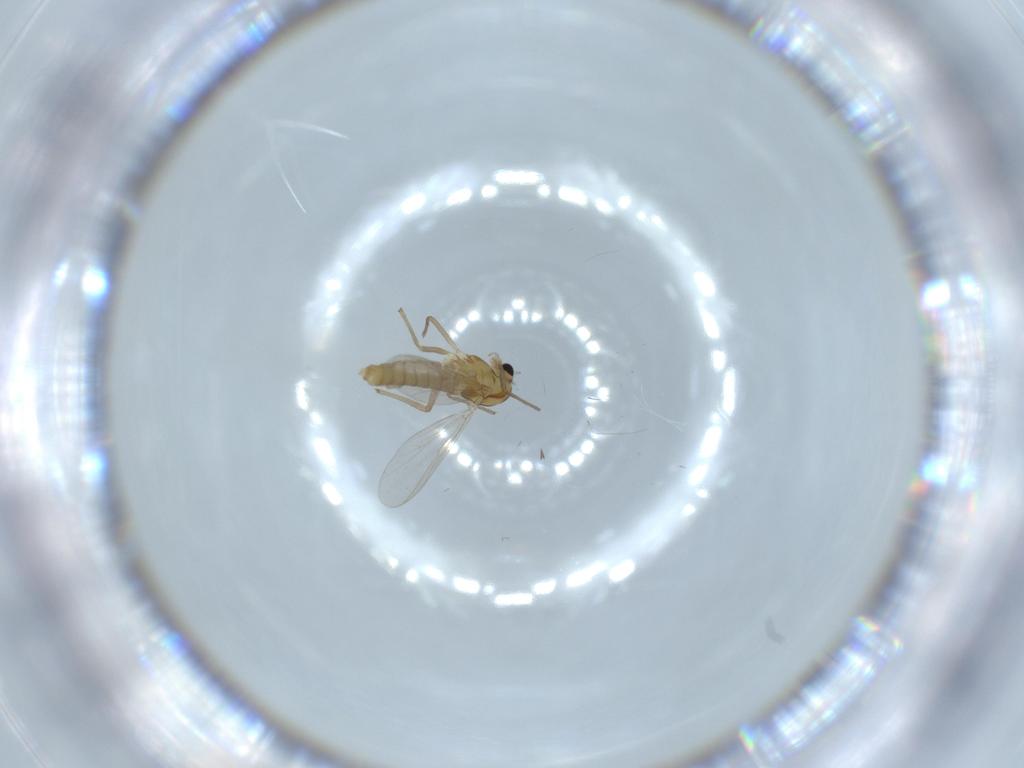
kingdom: Animalia
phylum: Arthropoda
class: Insecta
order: Diptera
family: Chironomidae
